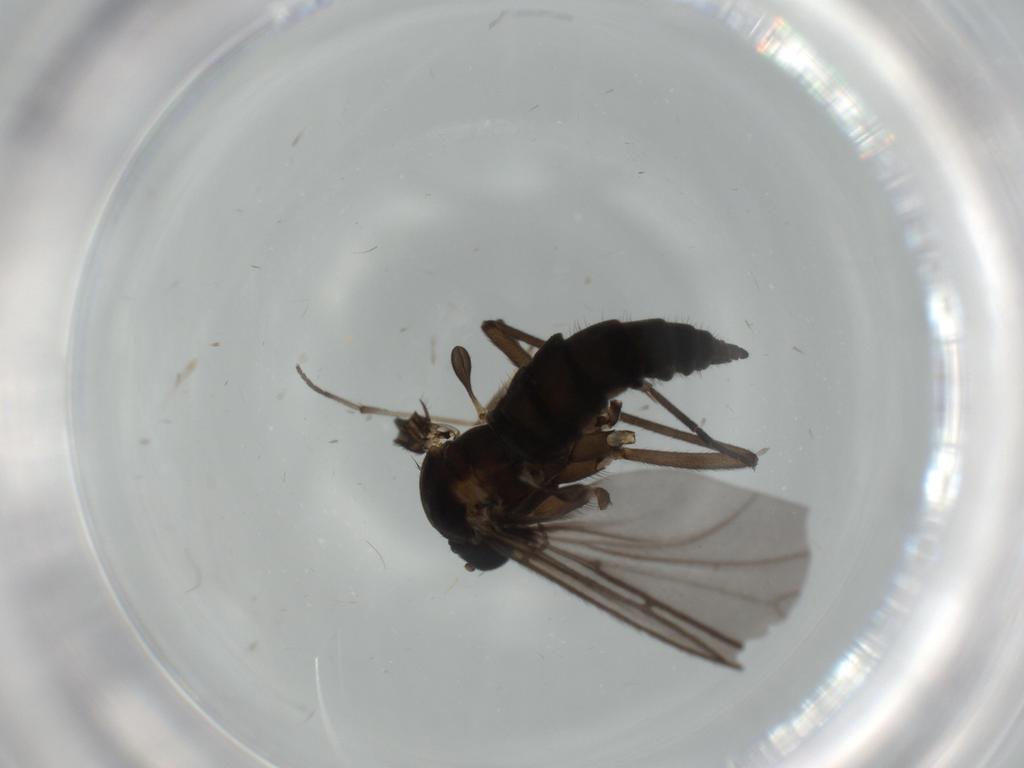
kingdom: Animalia
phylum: Arthropoda
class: Insecta
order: Diptera
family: Sciaridae
